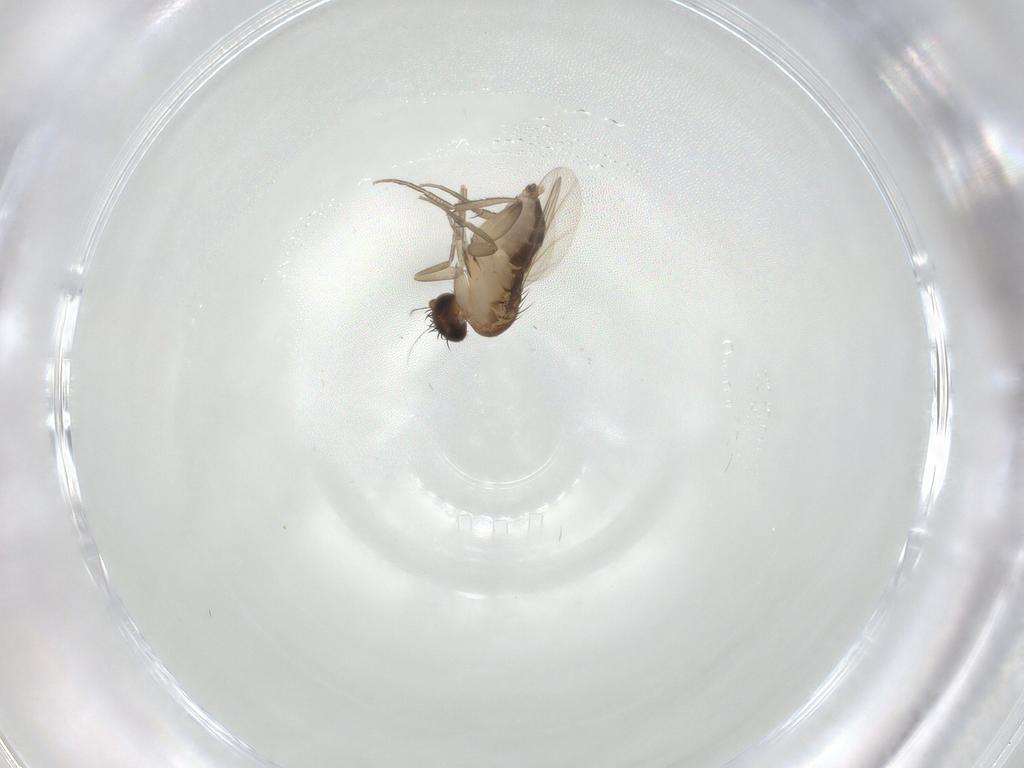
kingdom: Animalia
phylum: Arthropoda
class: Insecta
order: Diptera
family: Phoridae
